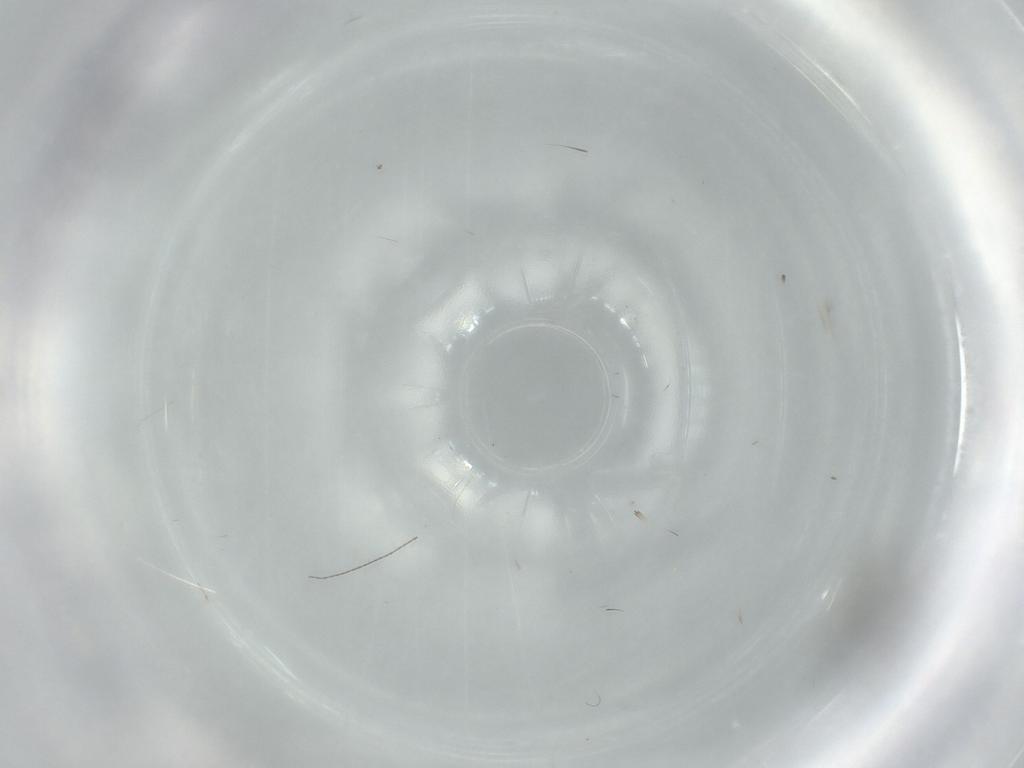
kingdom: Animalia
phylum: Arthropoda
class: Insecta
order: Diptera
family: Sciaridae
